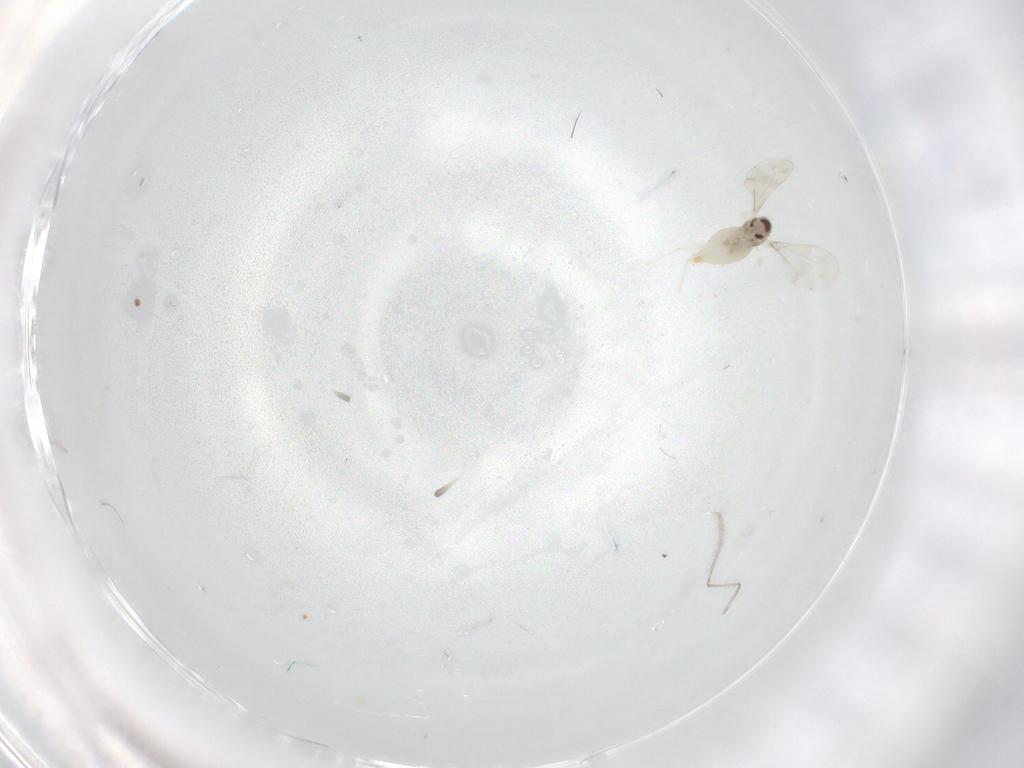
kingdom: Animalia
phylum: Arthropoda
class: Insecta
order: Diptera
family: Cecidomyiidae
